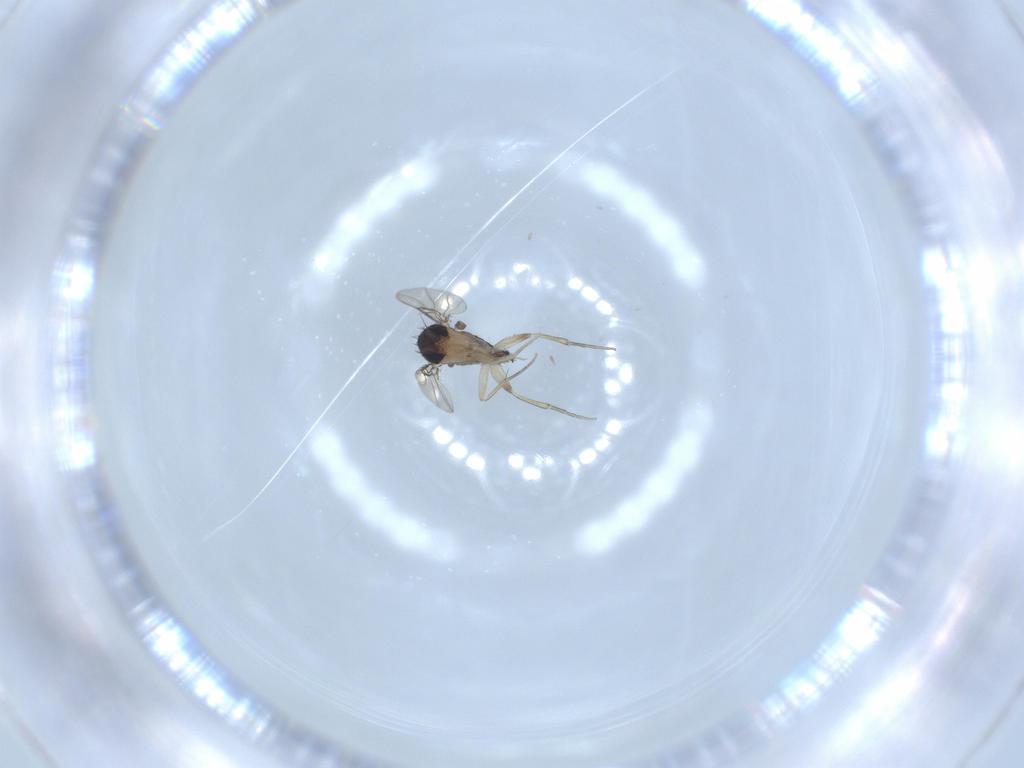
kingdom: Animalia
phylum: Arthropoda
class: Insecta
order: Diptera
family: Phoridae
